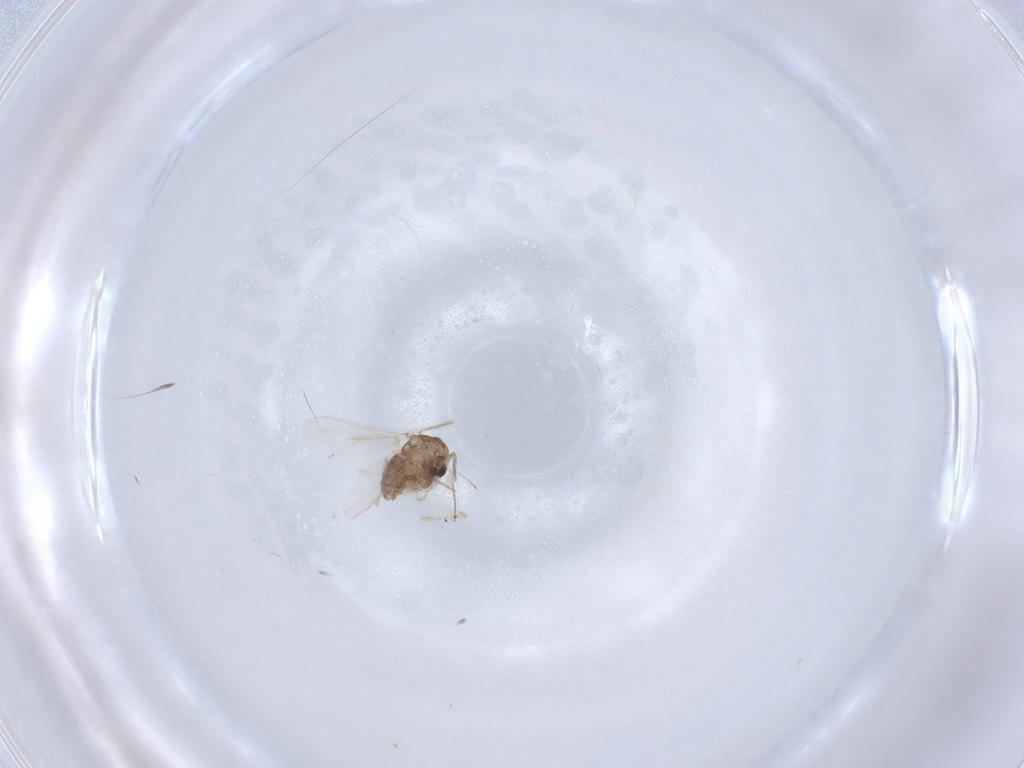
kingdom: Animalia
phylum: Arthropoda
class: Insecta
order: Diptera
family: Chironomidae
